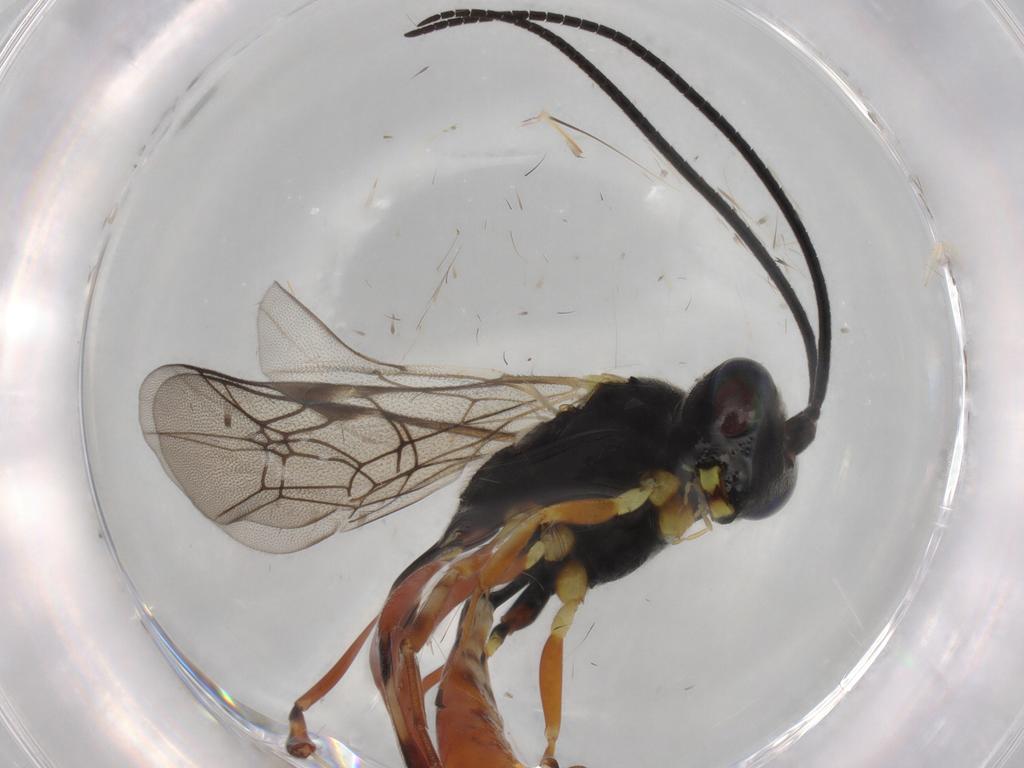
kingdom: Animalia
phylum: Arthropoda
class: Insecta
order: Hymenoptera
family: Ichneumonidae
